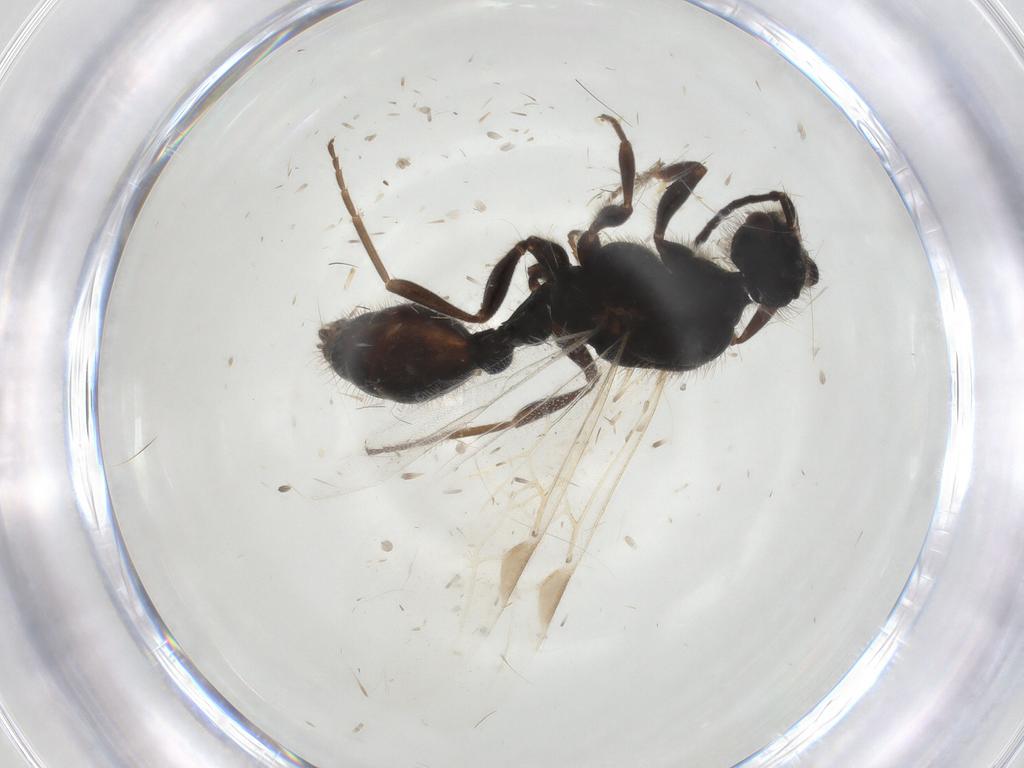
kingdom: Animalia
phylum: Arthropoda
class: Insecta
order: Hymenoptera
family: Formicidae
